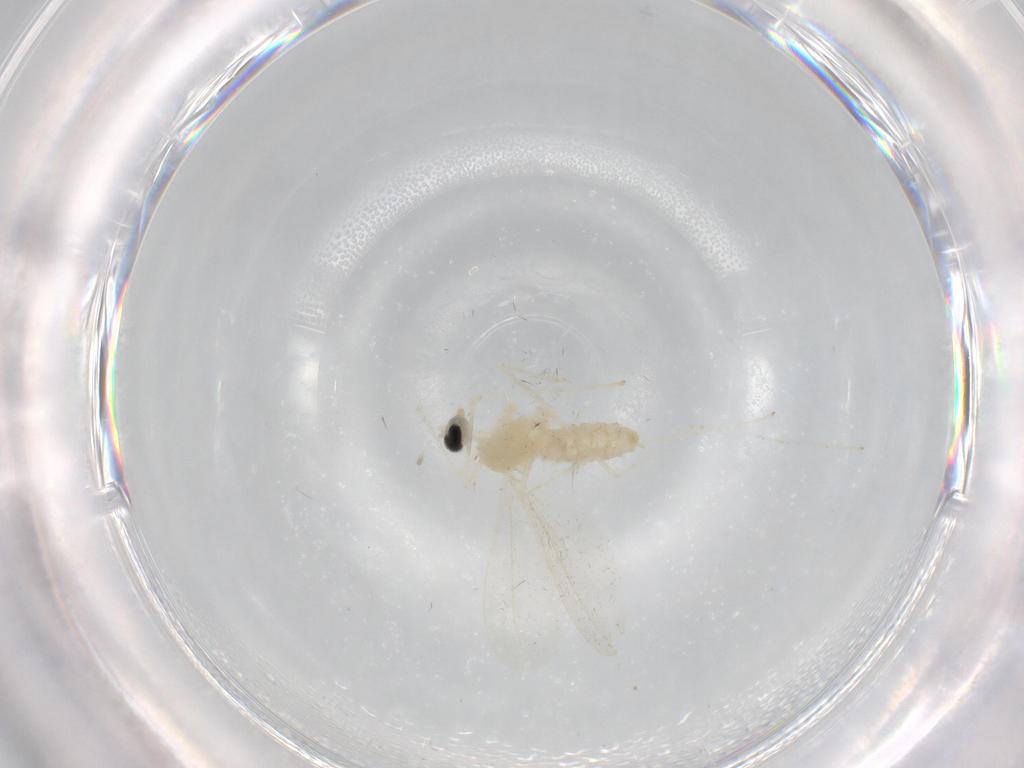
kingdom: Animalia
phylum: Arthropoda
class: Insecta
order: Diptera
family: Cecidomyiidae
